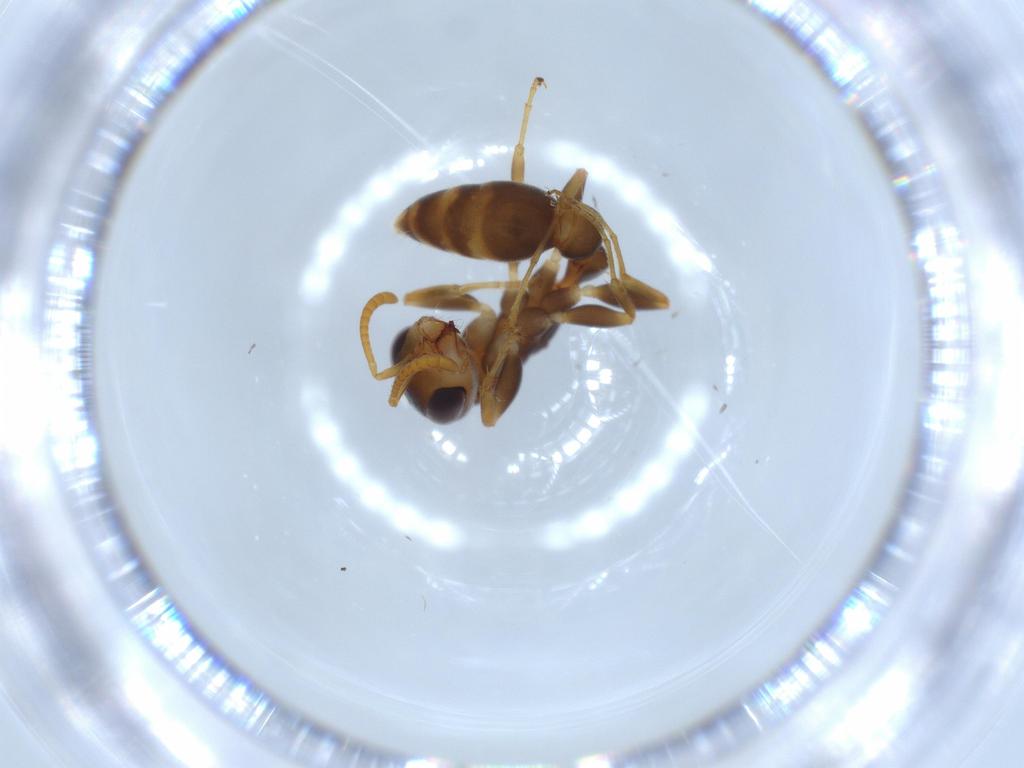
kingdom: Animalia
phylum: Arthropoda
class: Insecta
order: Hymenoptera
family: Formicidae
